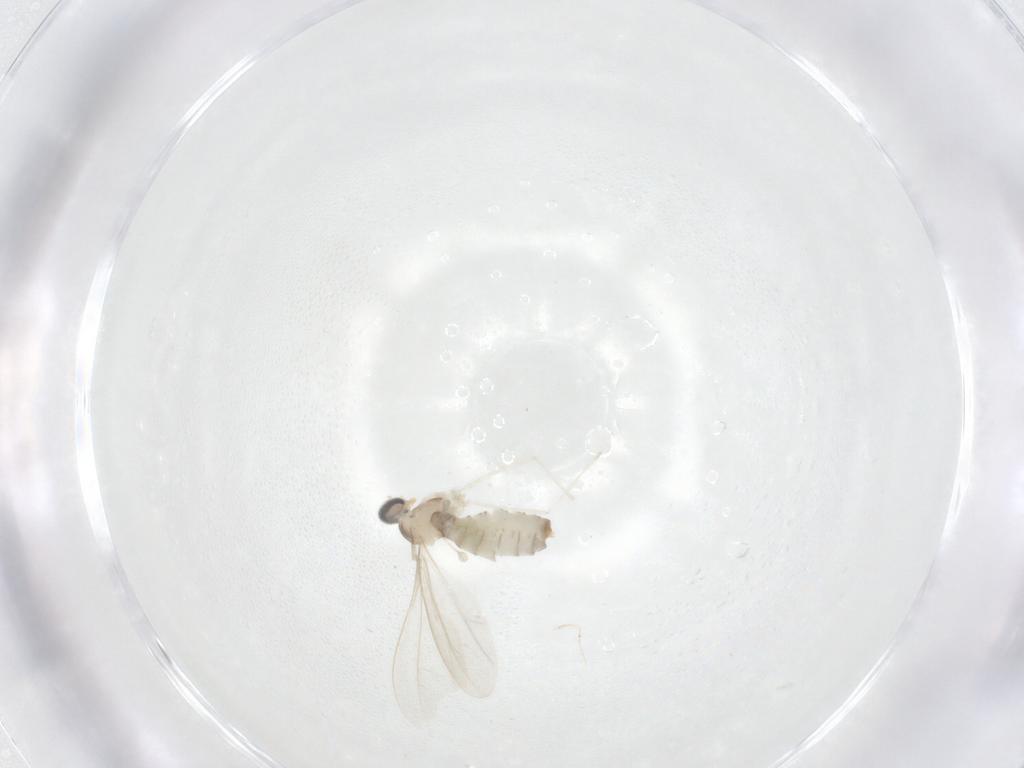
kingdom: Animalia
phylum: Arthropoda
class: Insecta
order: Diptera
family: Cecidomyiidae
